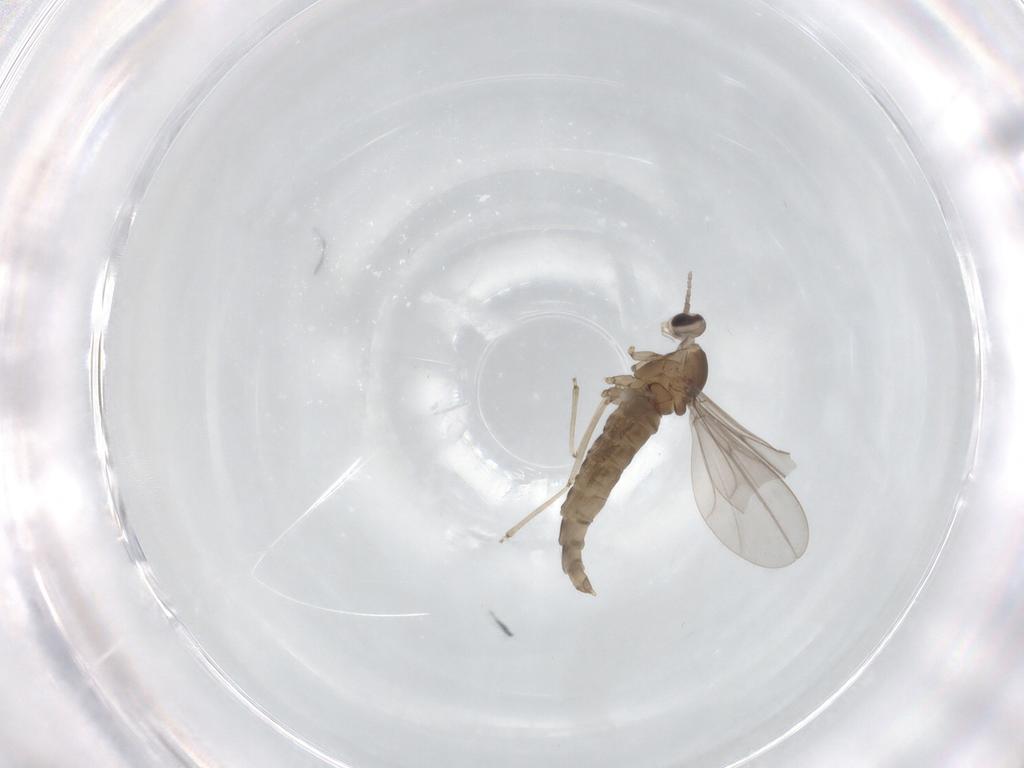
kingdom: Animalia
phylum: Arthropoda
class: Insecta
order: Diptera
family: Cecidomyiidae
